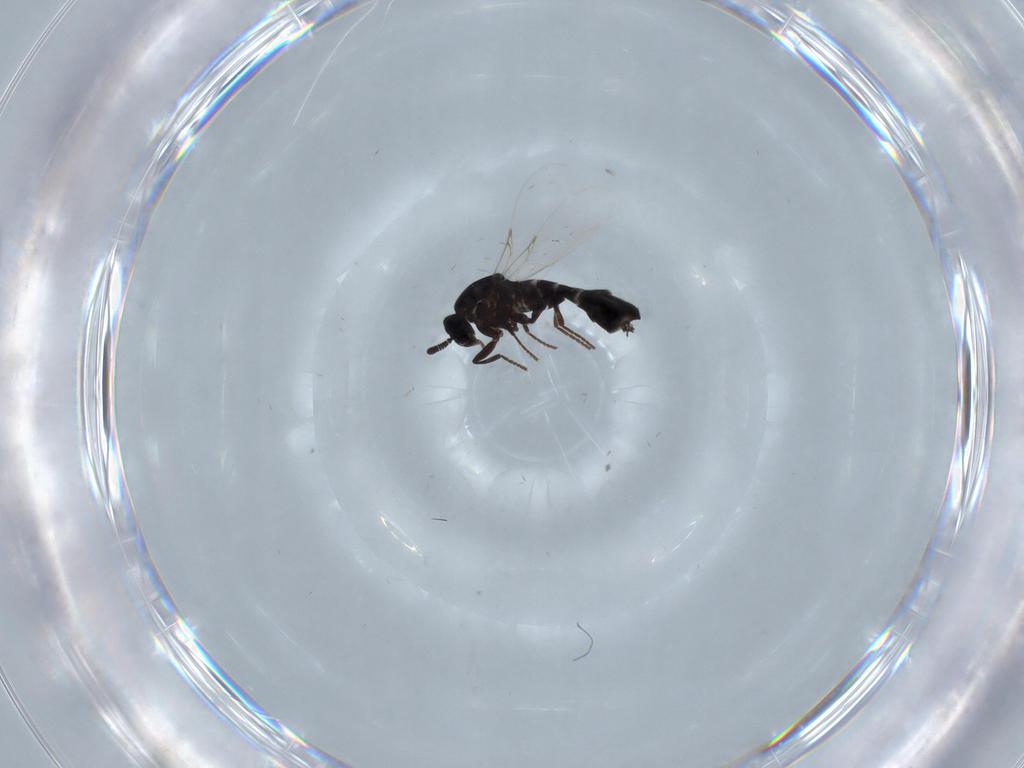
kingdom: Animalia
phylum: Arthropoda
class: Insecta
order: Diptera
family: Scatopsidae
